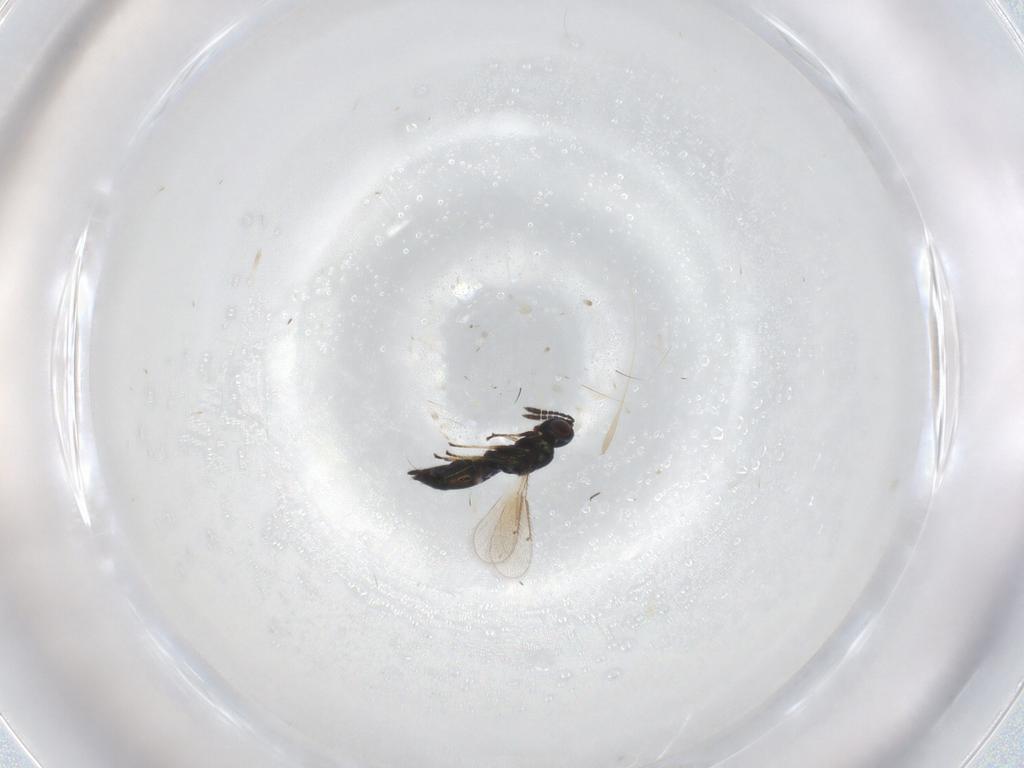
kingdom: Animalia
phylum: Arthropoda
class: Insecta
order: Hymenoptera
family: Eulophidae
